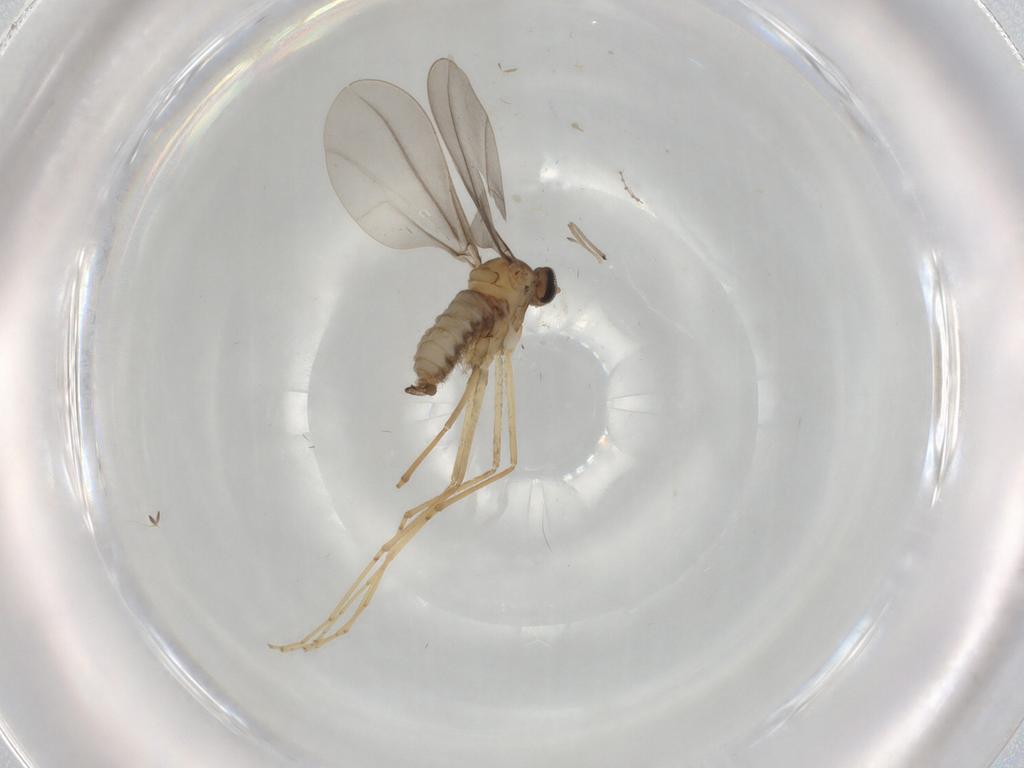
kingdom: Animalia
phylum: Arthropoda
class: Insecta
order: Diptera
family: Cecidomyiidae
